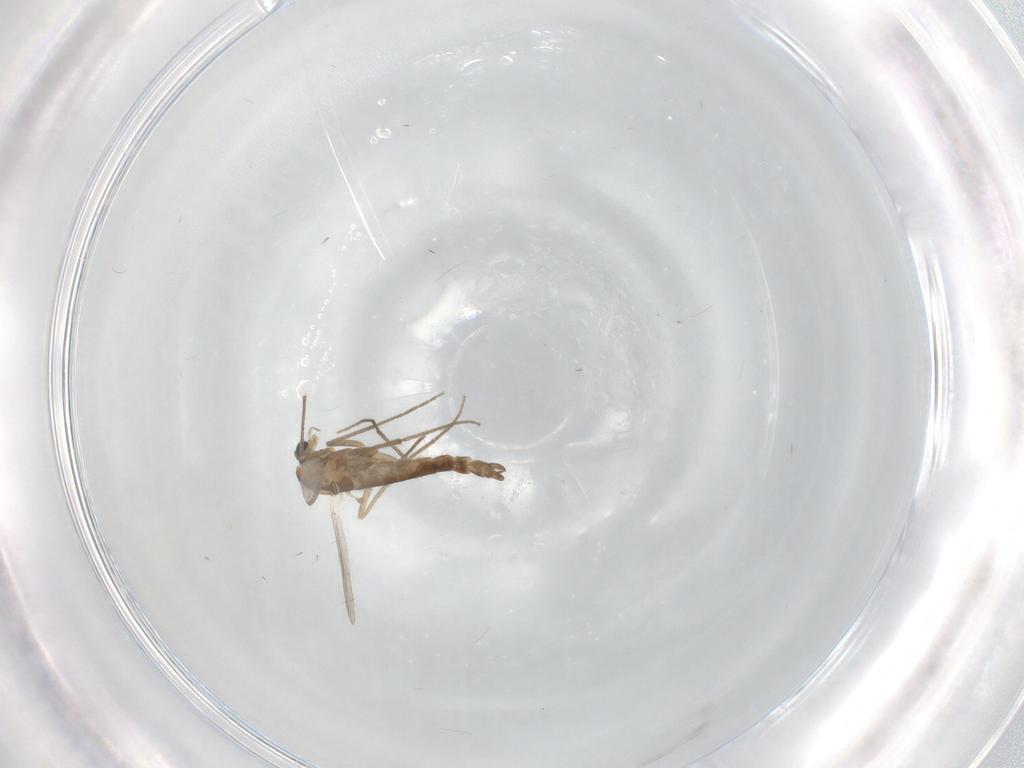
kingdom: Animalia
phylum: Arthropoda
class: Insecta
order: Diptera
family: Chironomidae
